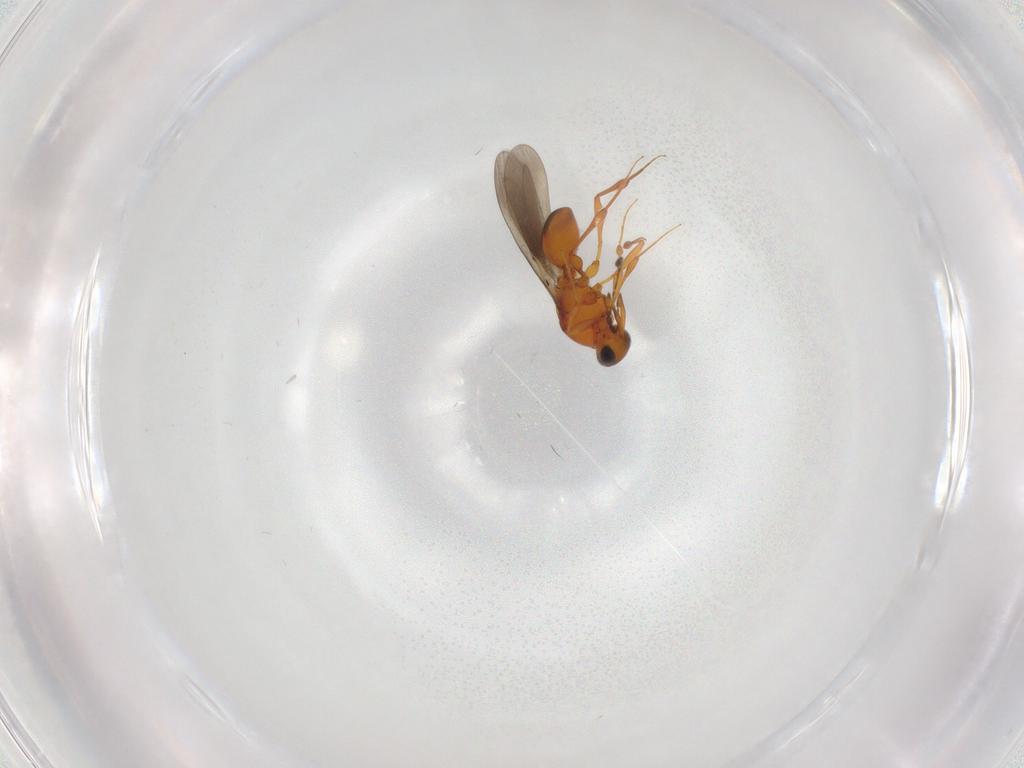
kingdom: Animalia
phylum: Arthropoda
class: Insecta
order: Hymenoptera
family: Platygastridae
